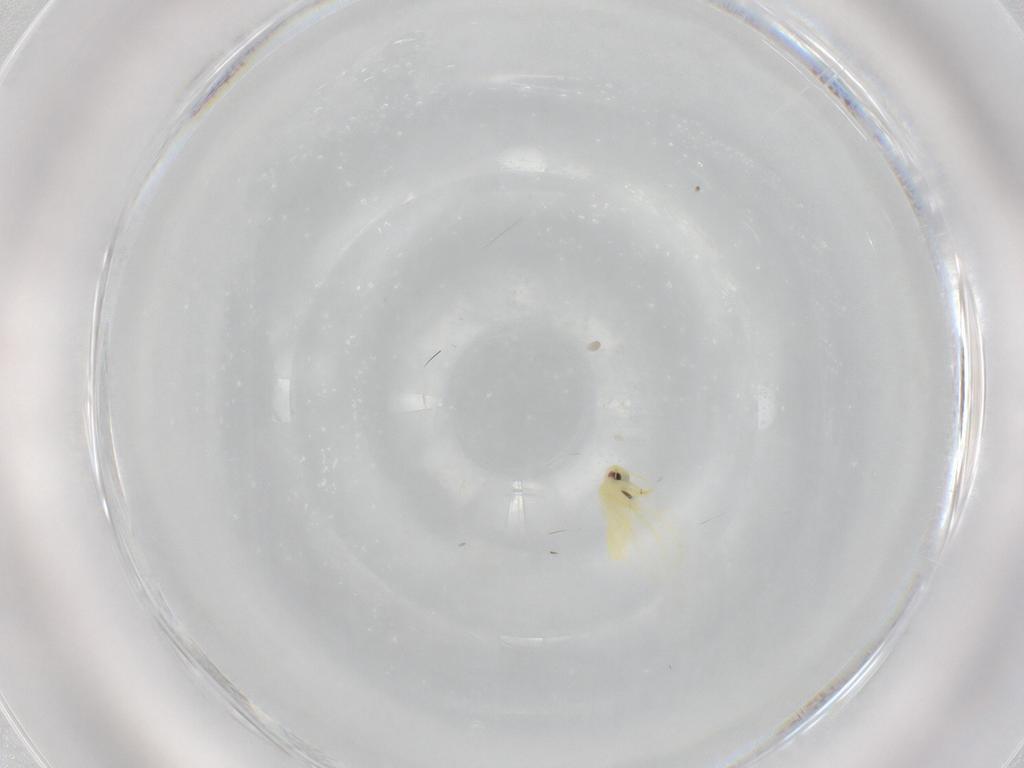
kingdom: Animalia
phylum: Arthropoda
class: Insecta
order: Hemiptera
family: Aleyrodidae
